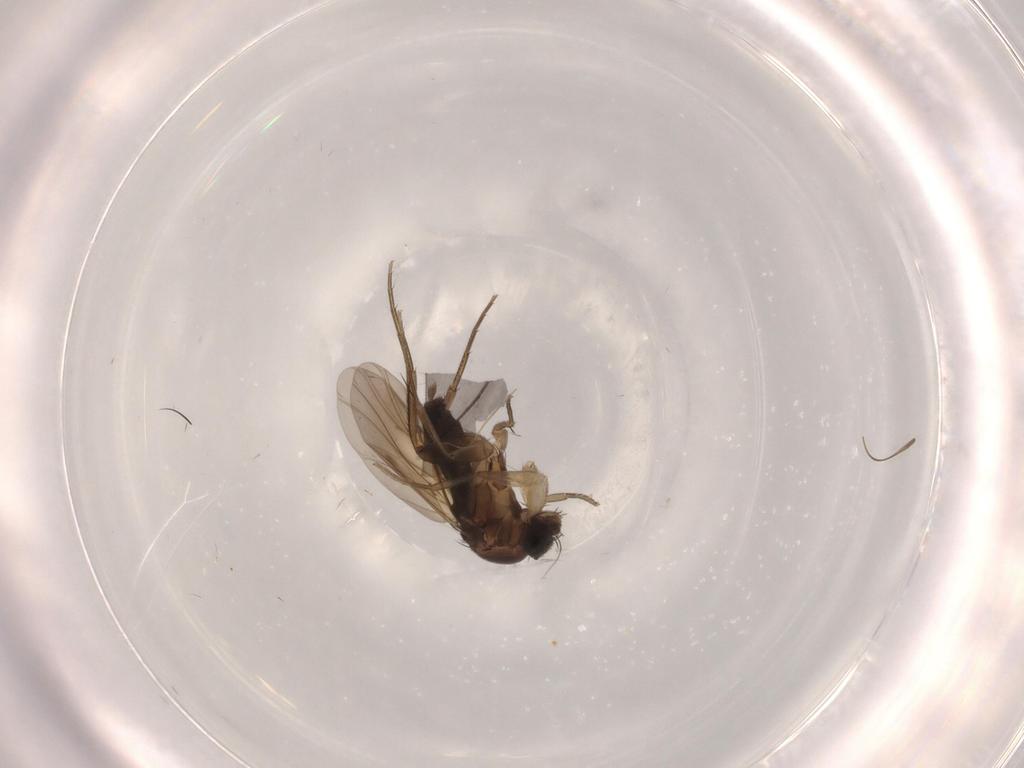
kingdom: Animalia
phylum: Arthropoda
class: Insecta
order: Diptera
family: Phoridae
